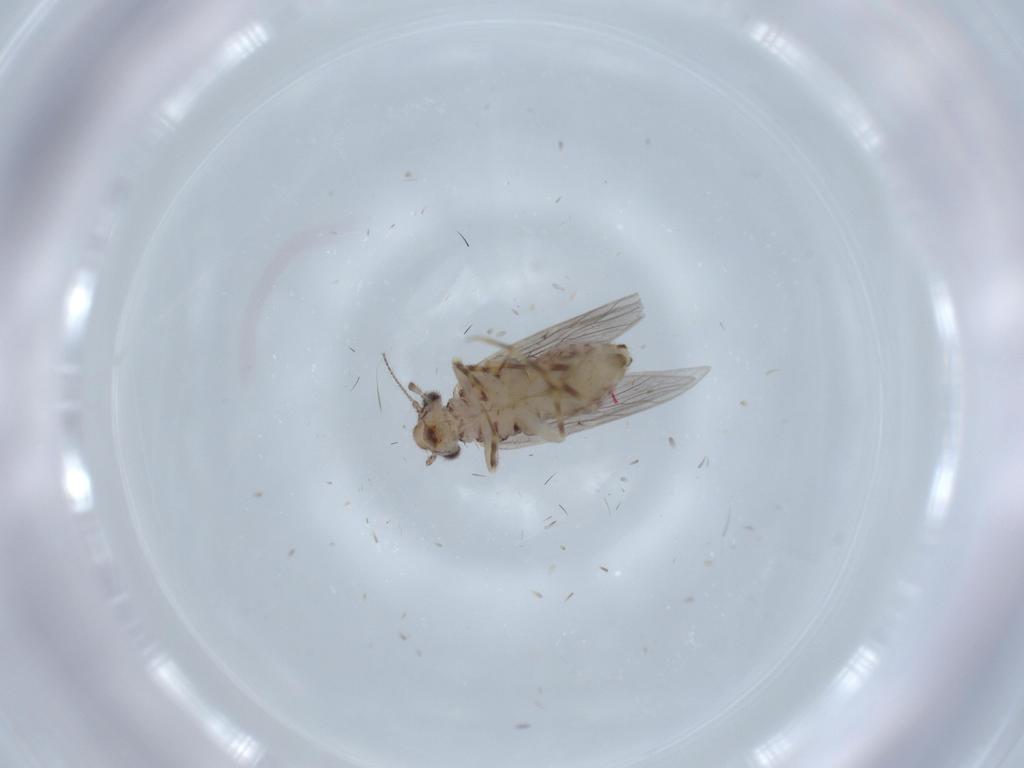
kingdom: Animalia
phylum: Arthropoda
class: Insecta
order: Psocodea
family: Lepidopsocidae
